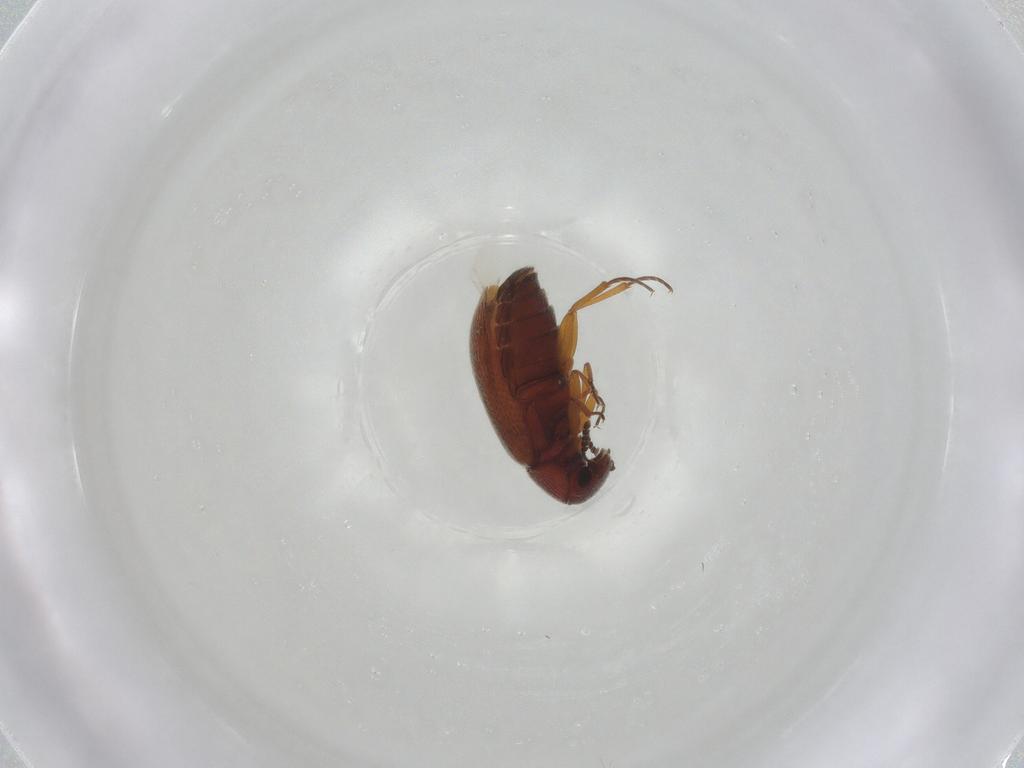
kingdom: Animalia
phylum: Arthropoda
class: Insecta
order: Coleoptera
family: Rhadalidae
